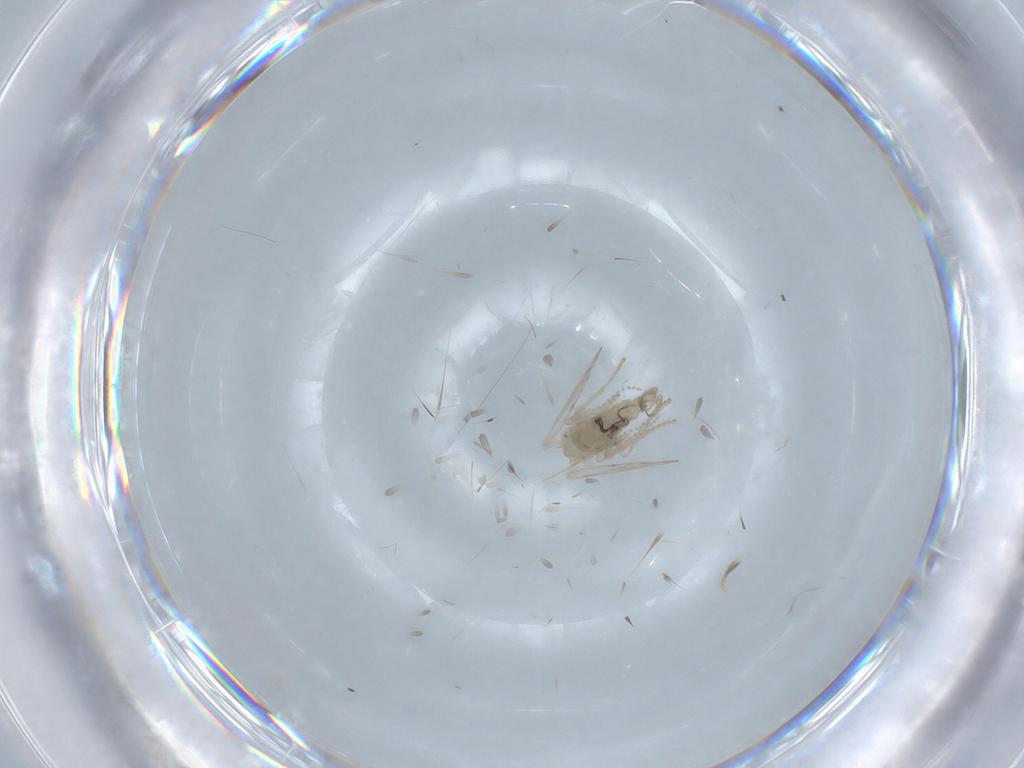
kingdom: Animalia
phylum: Arthropoda
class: Insecta
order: Diptera
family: Psychodidae
